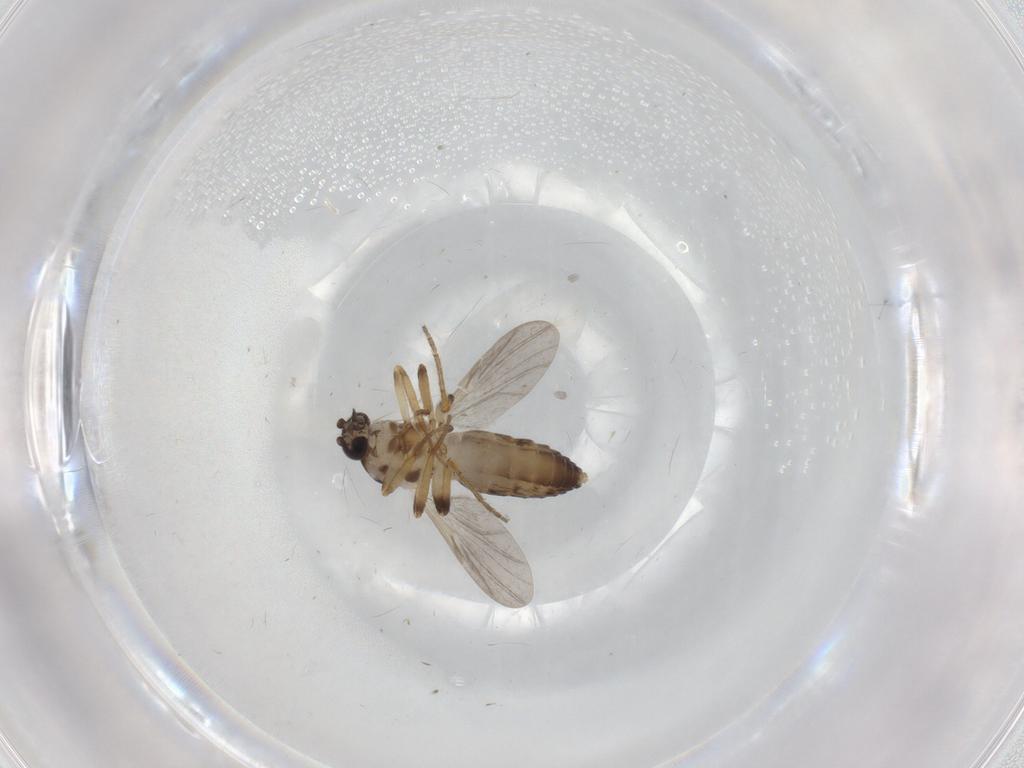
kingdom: Animalia
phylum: Arthropoda
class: Insecta
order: Diptera
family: Ceratopogonidae
